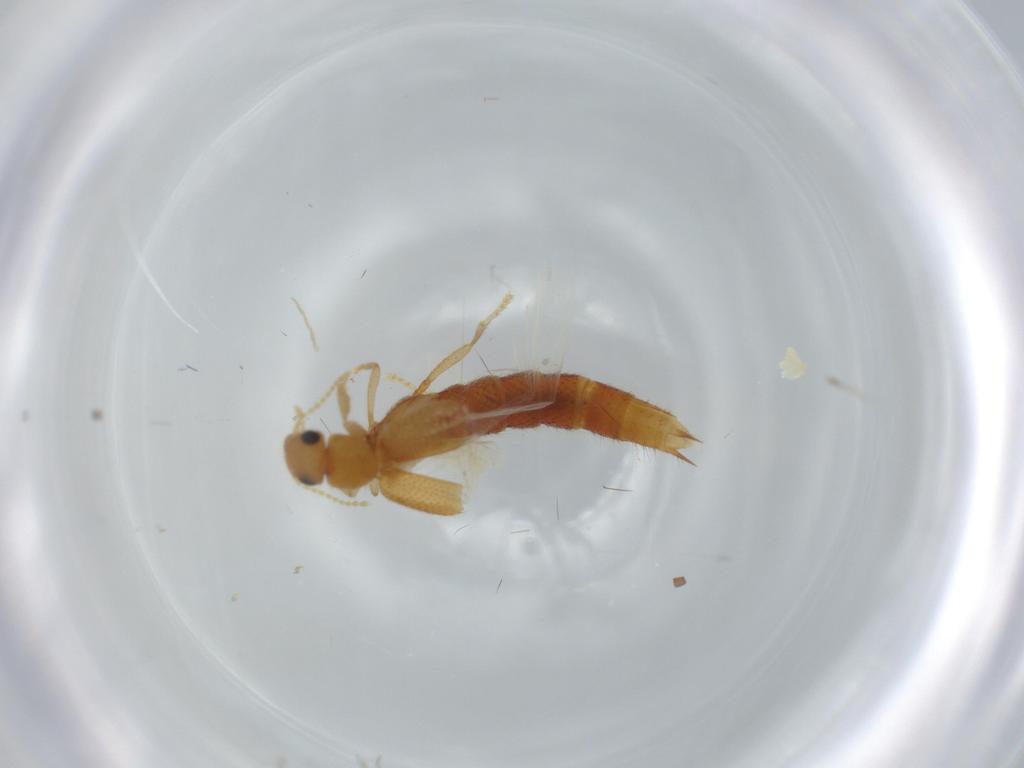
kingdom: Animalia
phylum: Arthropoda
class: Insecta
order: Coleoptera
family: Staphylinidae
